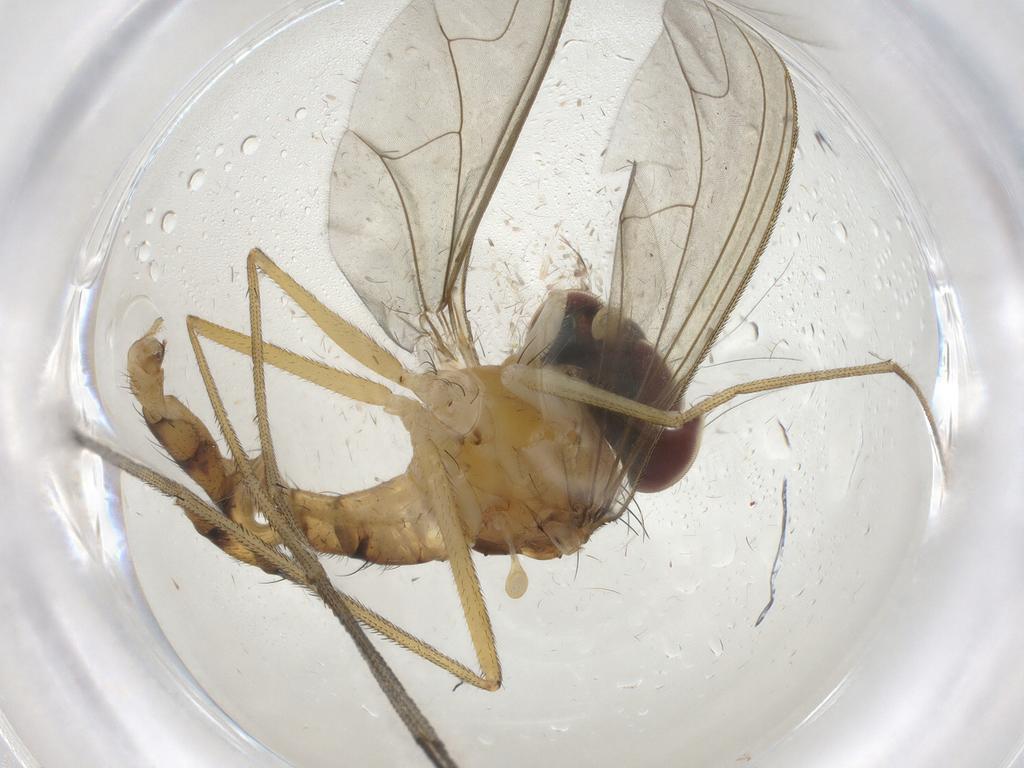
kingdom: Animalia
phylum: Arthropoda
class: Insecta
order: Diptera
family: Dolichopodidae
